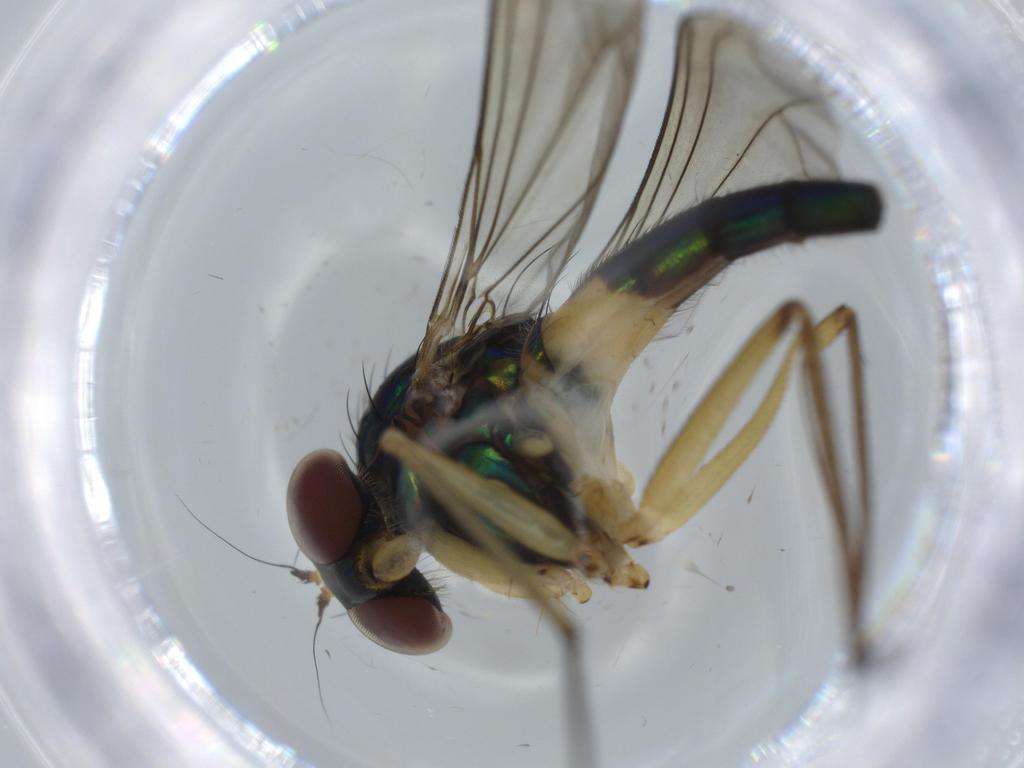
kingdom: Animalia
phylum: Arthropoda
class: Insecta
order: Diptera
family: Dolichopodidae
